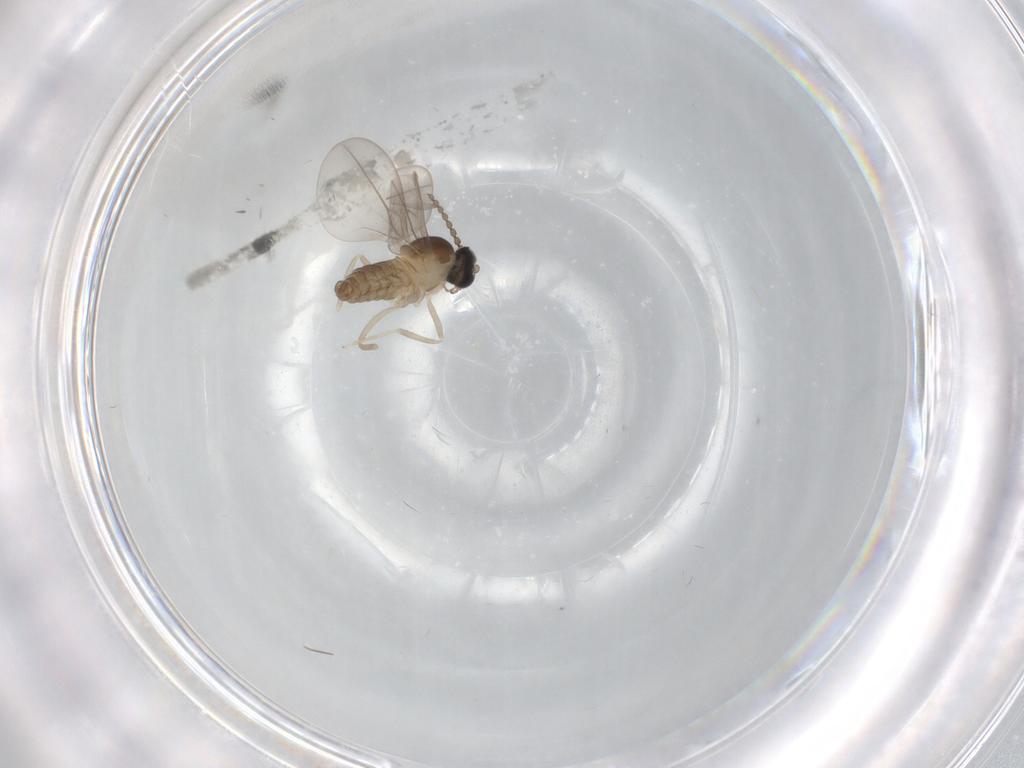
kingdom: Animalia
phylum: Arthropoda
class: Insecta
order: Diptera
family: Cecidomyiidae
